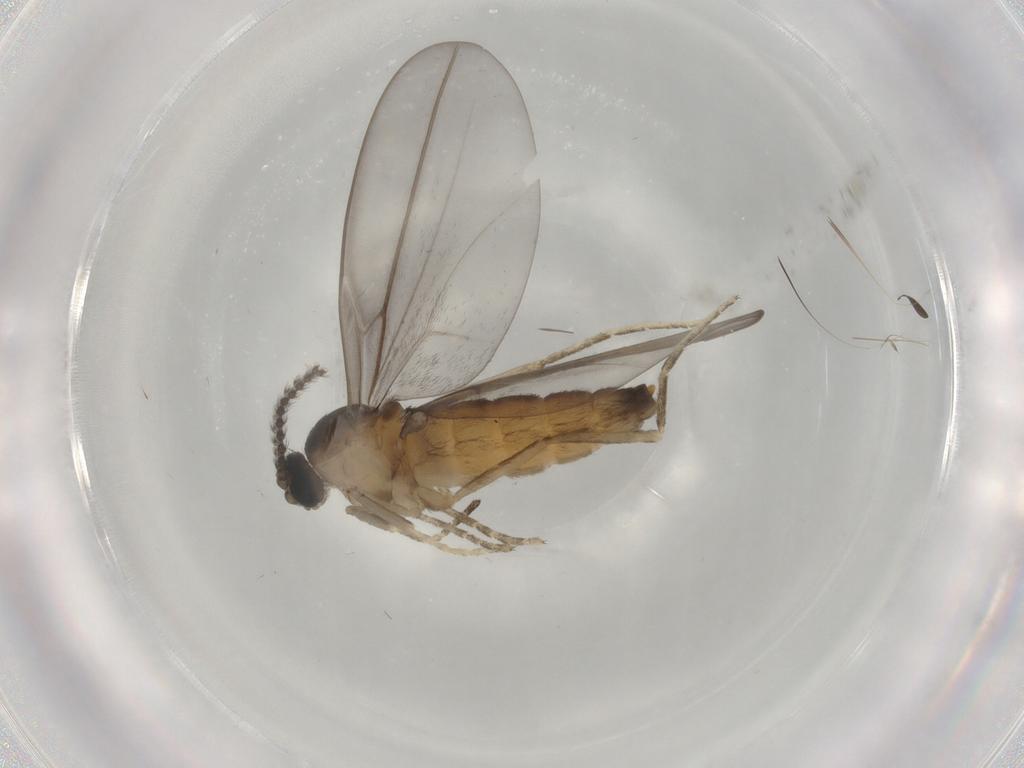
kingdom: Animalia
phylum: Arthropoda
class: Insecta
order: Diptera
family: Cecidomyiidae
